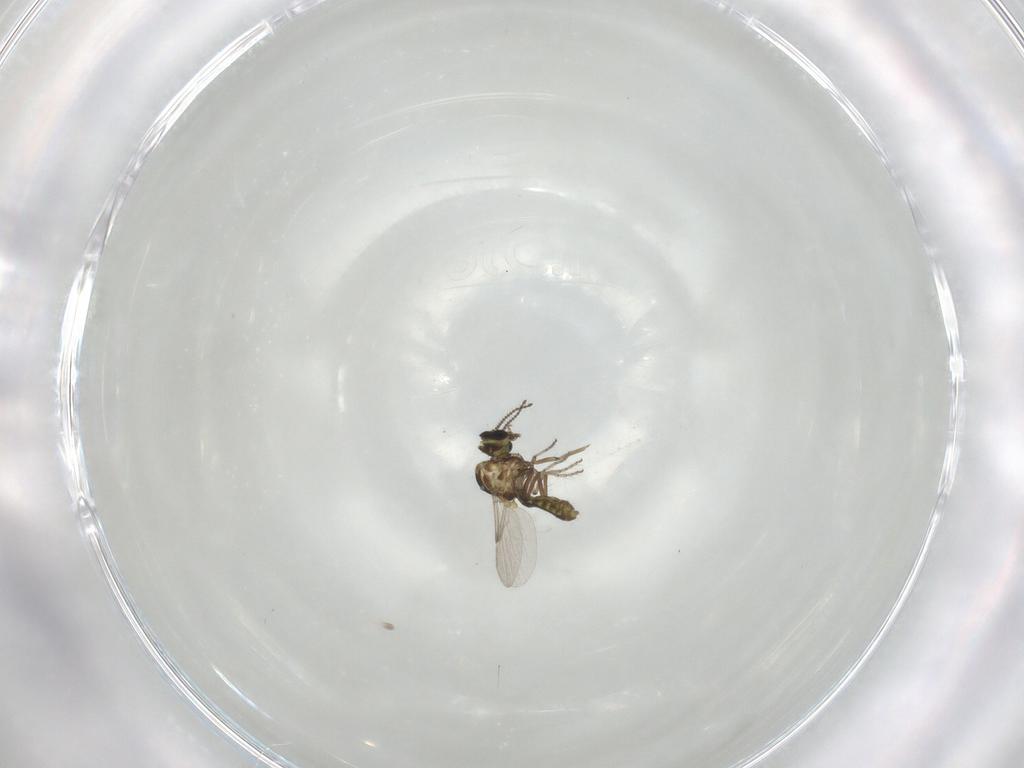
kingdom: Animalia
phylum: Arthropoda
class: Insecta
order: Diptera
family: Ceratopogonidae
